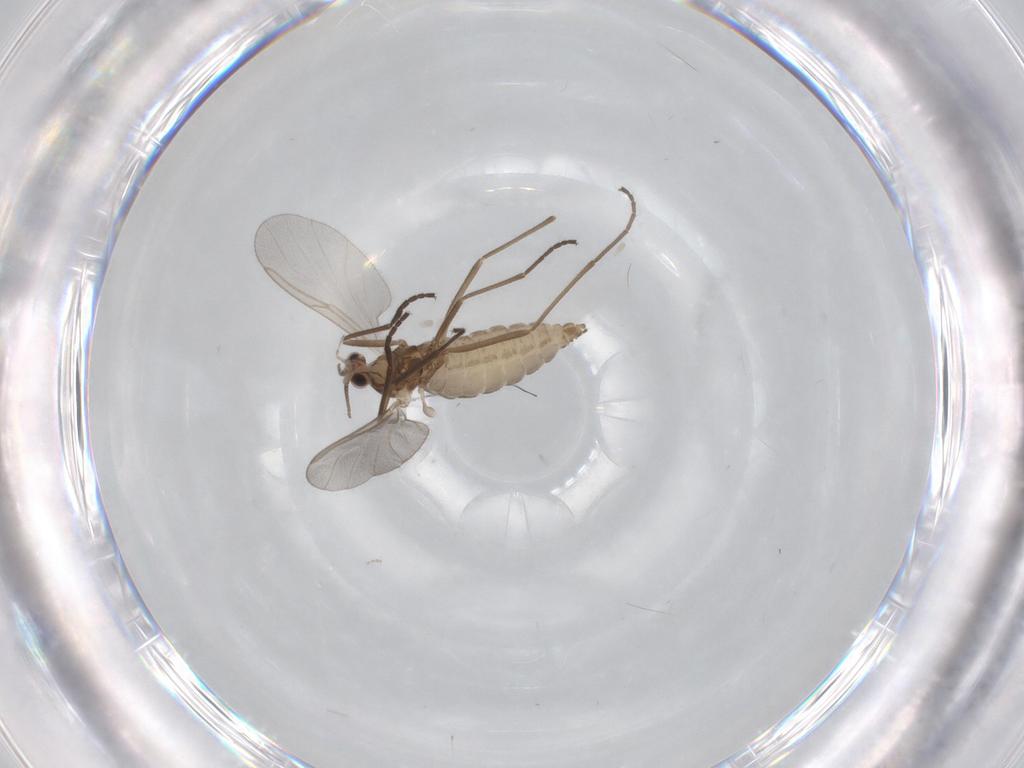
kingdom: Animalia
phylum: Arthropoda
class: Insecta
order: Diptera
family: Cecidomyiidae
